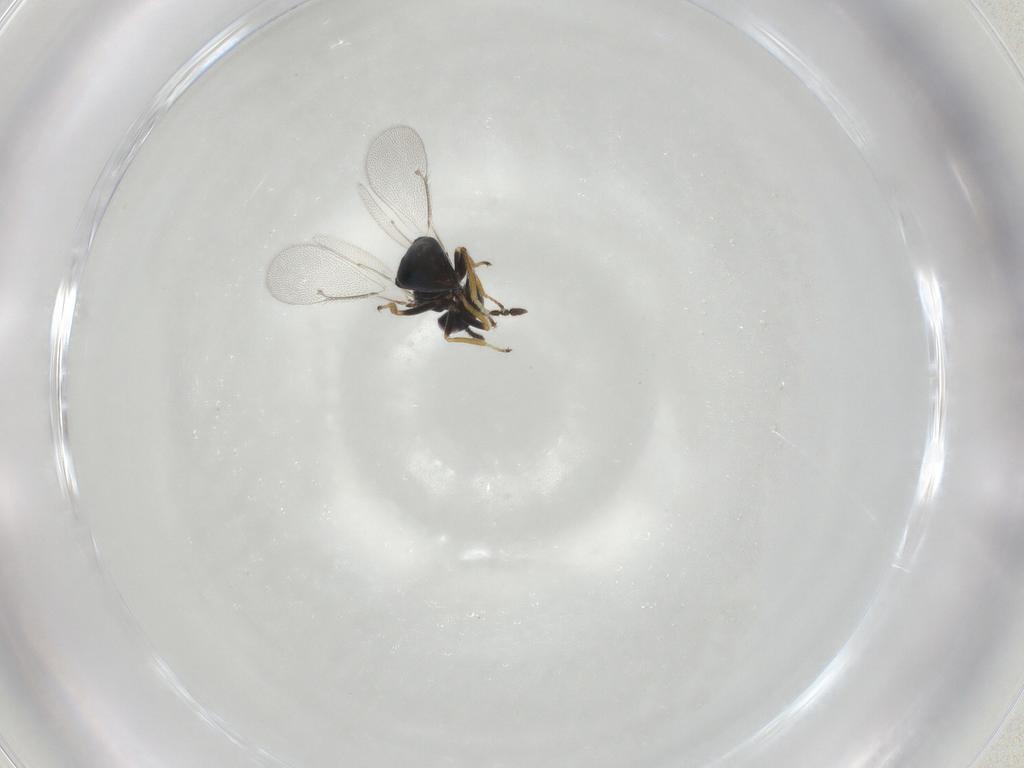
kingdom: Animalia
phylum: Arthropoda
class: Insecta
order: Hymenoptera
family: Eulophidae
